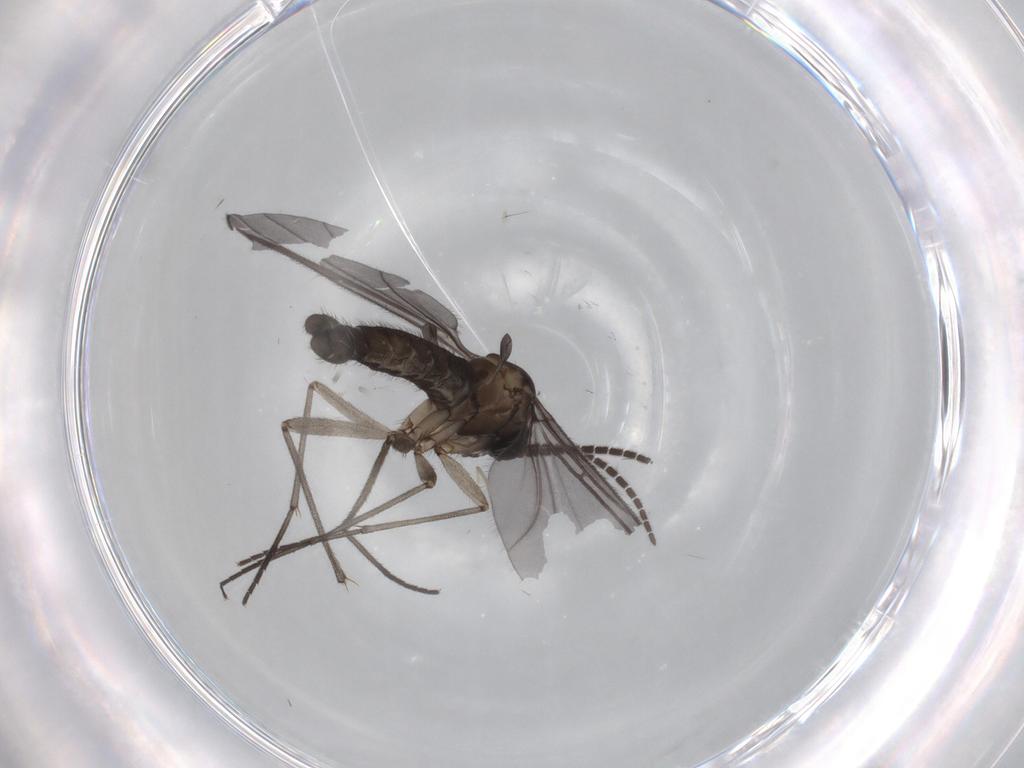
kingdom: Animalia
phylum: Arthropoda
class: Insecta
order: Diptera
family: Sciaridae
